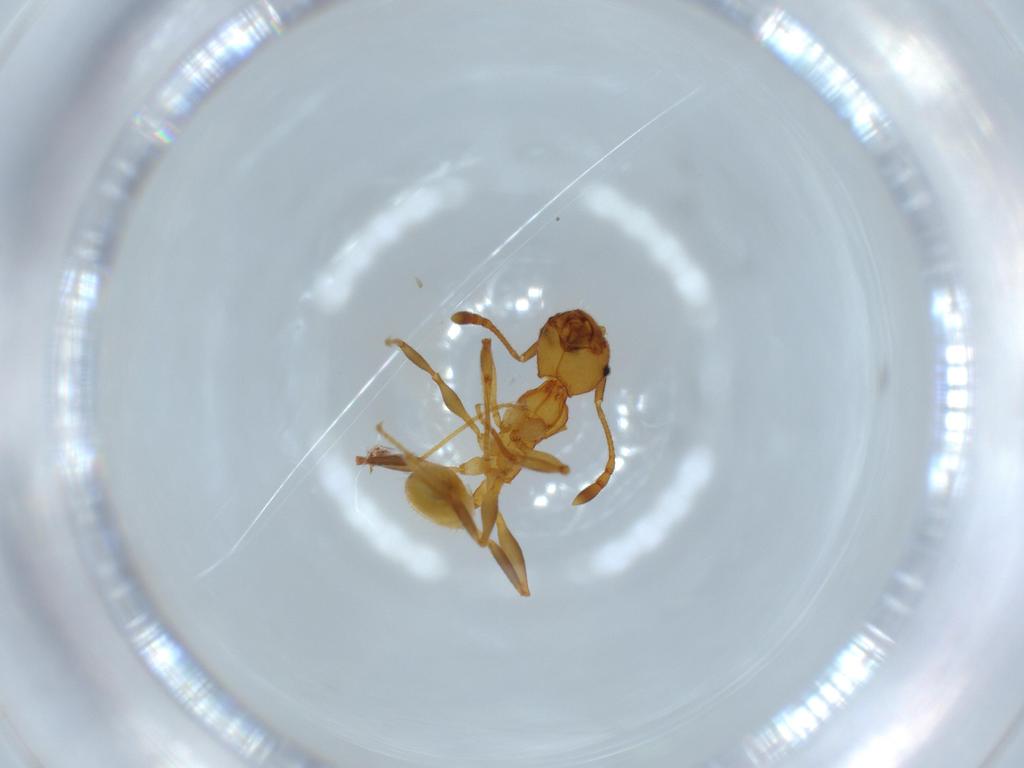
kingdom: Animalia
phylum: Arthropoda
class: Insecta
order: Hymenoptera
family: Formicidae
